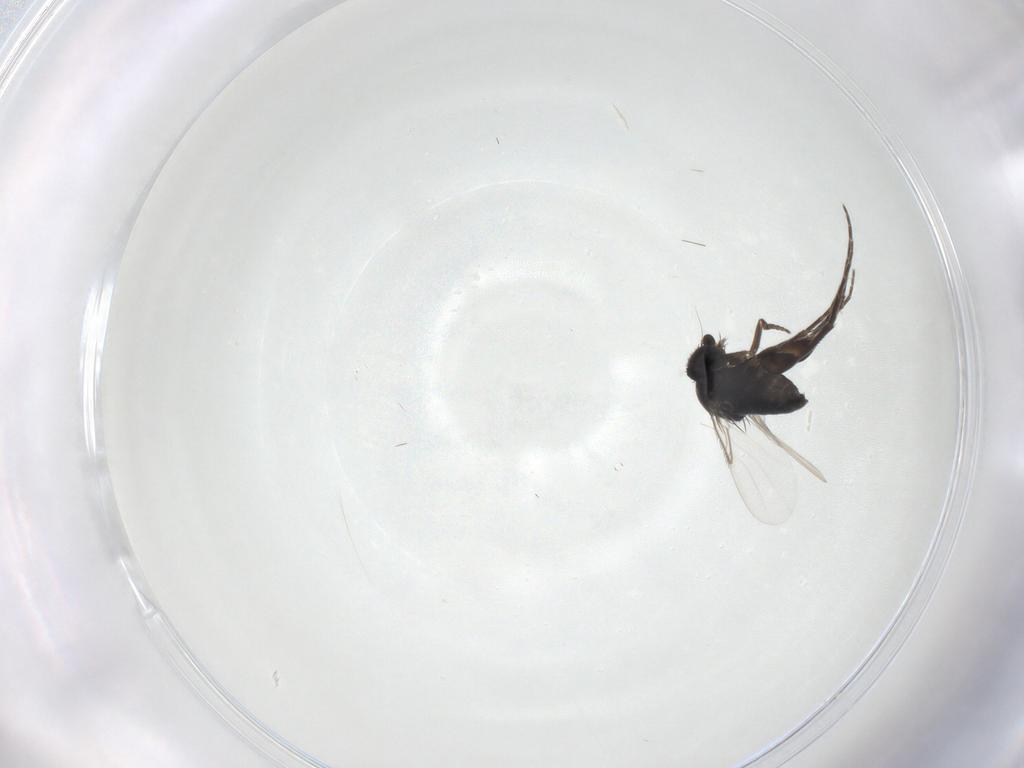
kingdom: Animalia
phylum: Arthropoda
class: Insecta
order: Diptera
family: Phoridae
